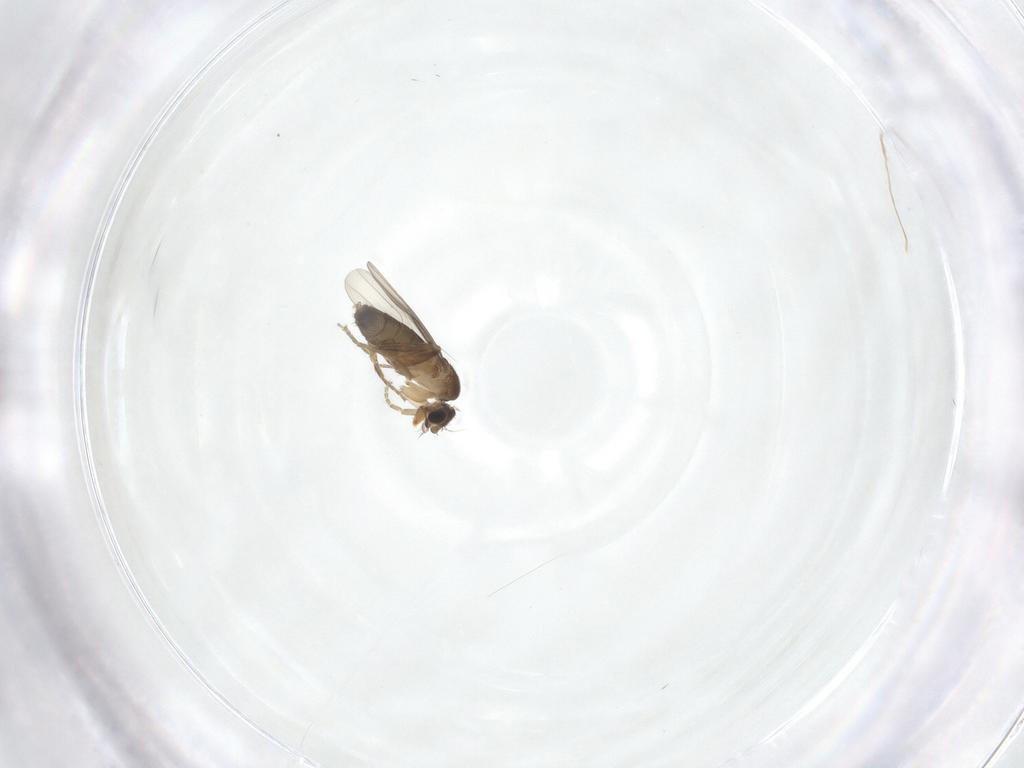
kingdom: Animalia
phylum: Arthropoda
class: Insecta
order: Diptera
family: Phoridae
